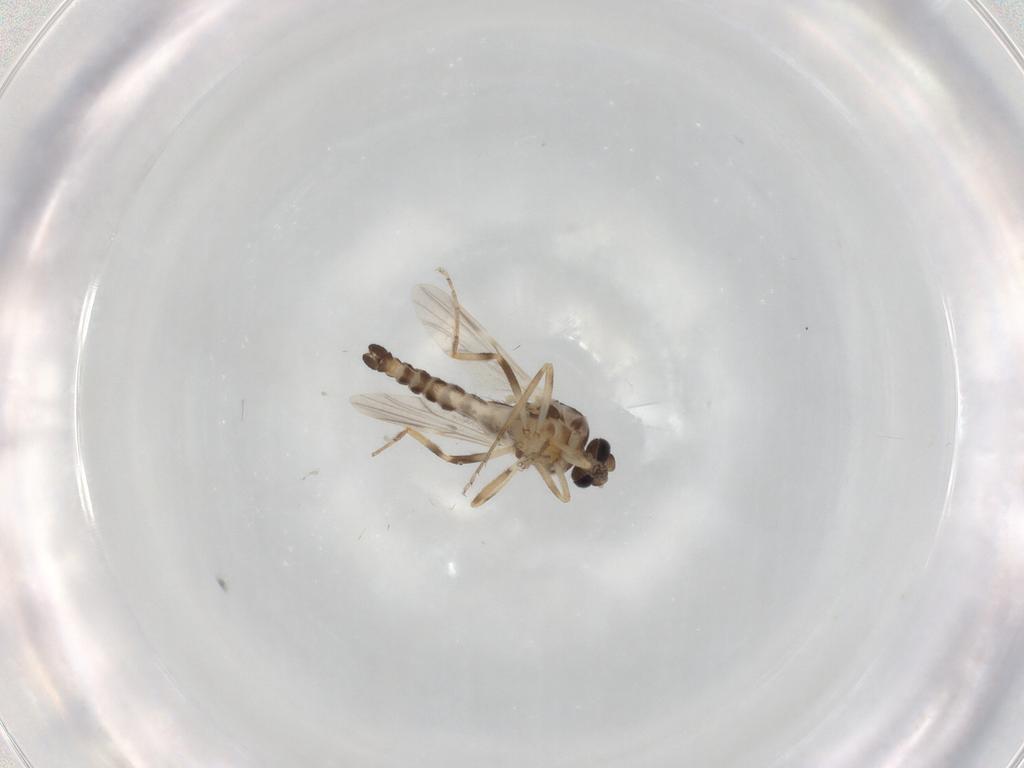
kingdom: Animalia
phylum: Arthropoda
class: Insecta
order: Diptera
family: Ceratopogonidae
